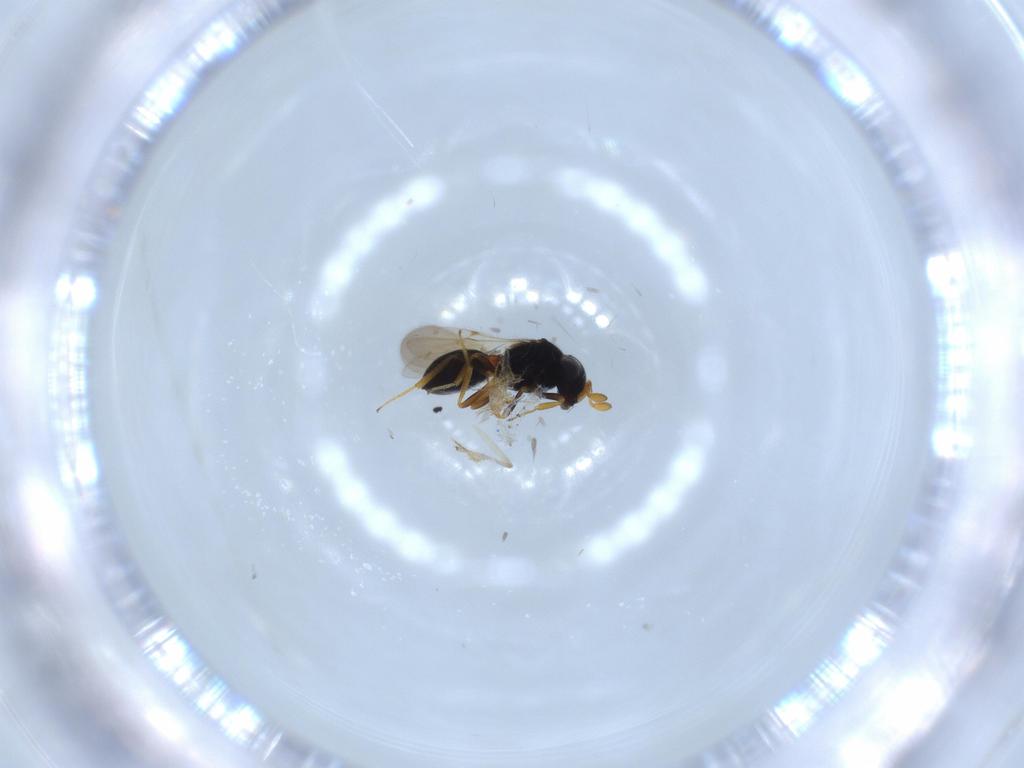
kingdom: Animalia
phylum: Arthropoda
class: Insecta
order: Hymenoptera
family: Scelionidae
